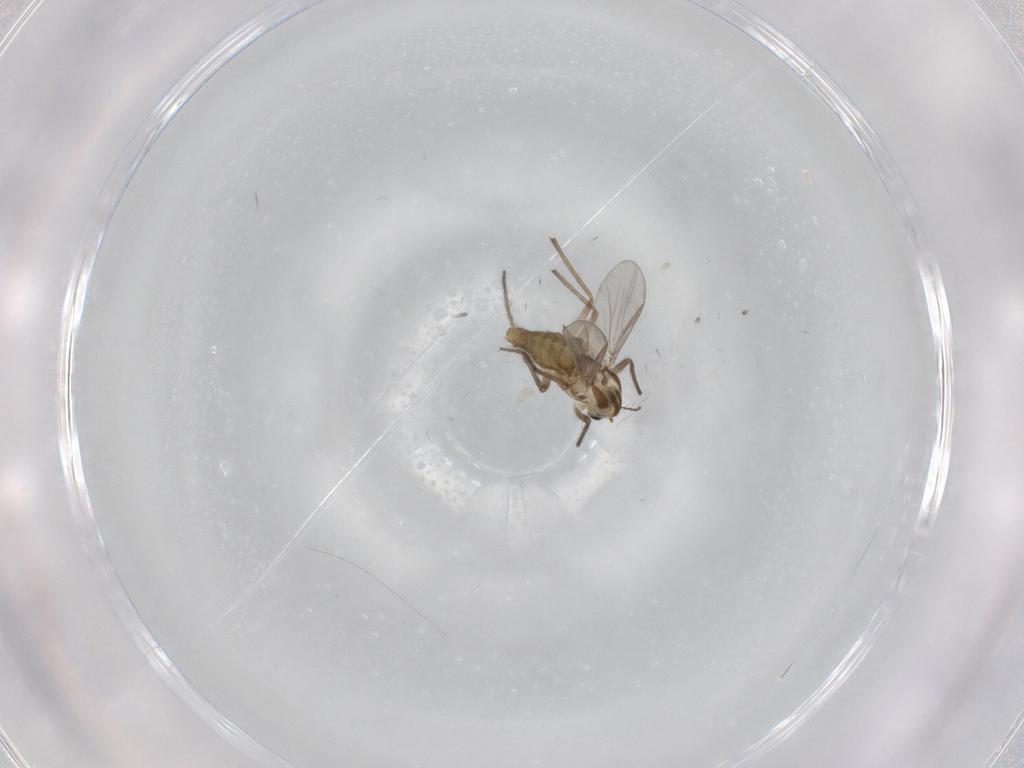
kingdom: Animalia
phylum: Arthropoda
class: Insecta
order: Diptera
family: Chironomidae
